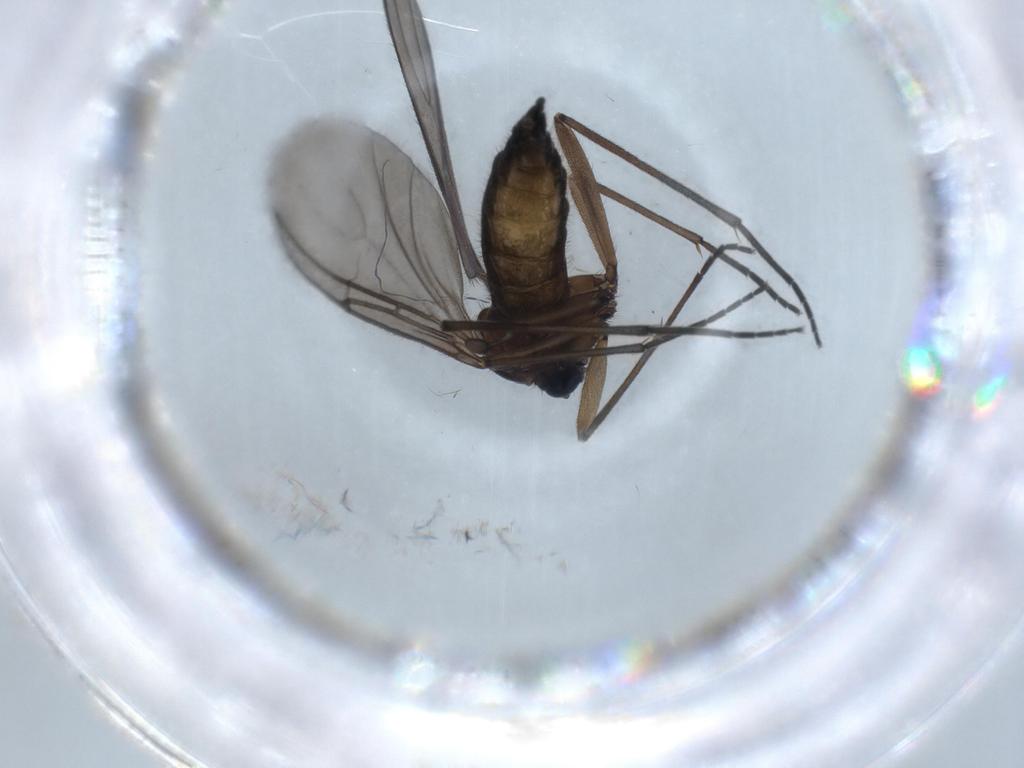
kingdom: Animalia
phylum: Arthropoda
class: Insecta
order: Diptera
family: Sciaridae
